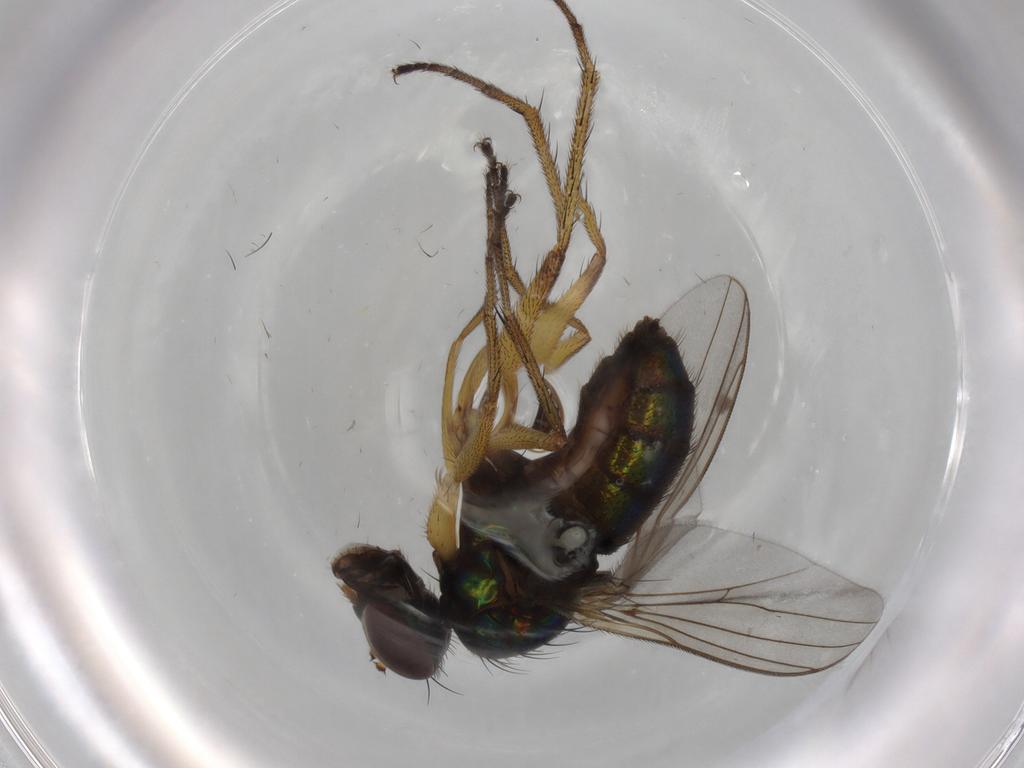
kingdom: Animalia
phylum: Arthropoda
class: Insecta
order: Diptera
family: Dolichopodidae
